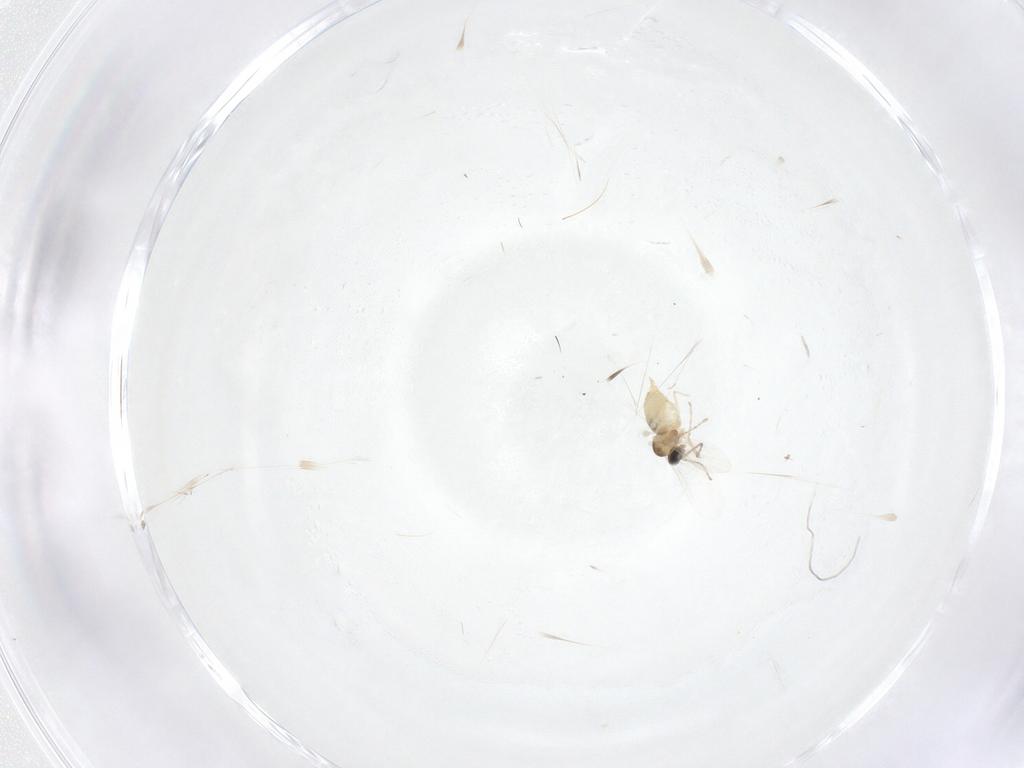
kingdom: Animalia
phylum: Arthropoda
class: Insecta
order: Diptera
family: Cecidomyiidae
